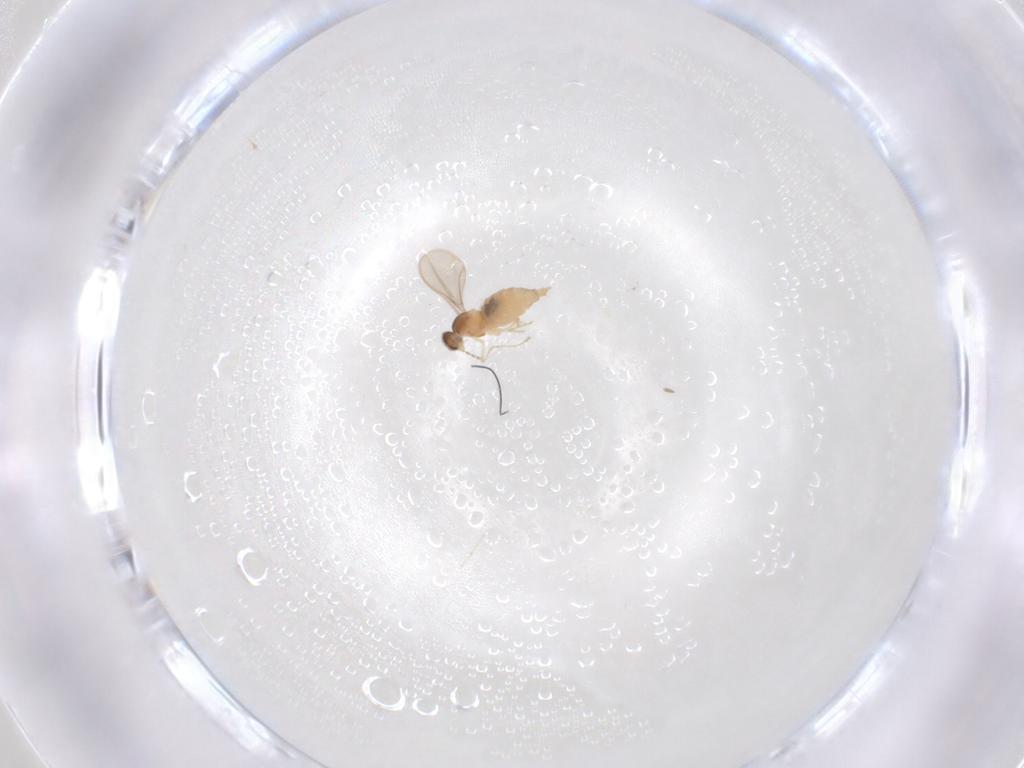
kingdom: Animalia
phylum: Arthropoda
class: Insecta
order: Diptera
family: Cecidomyiidae
